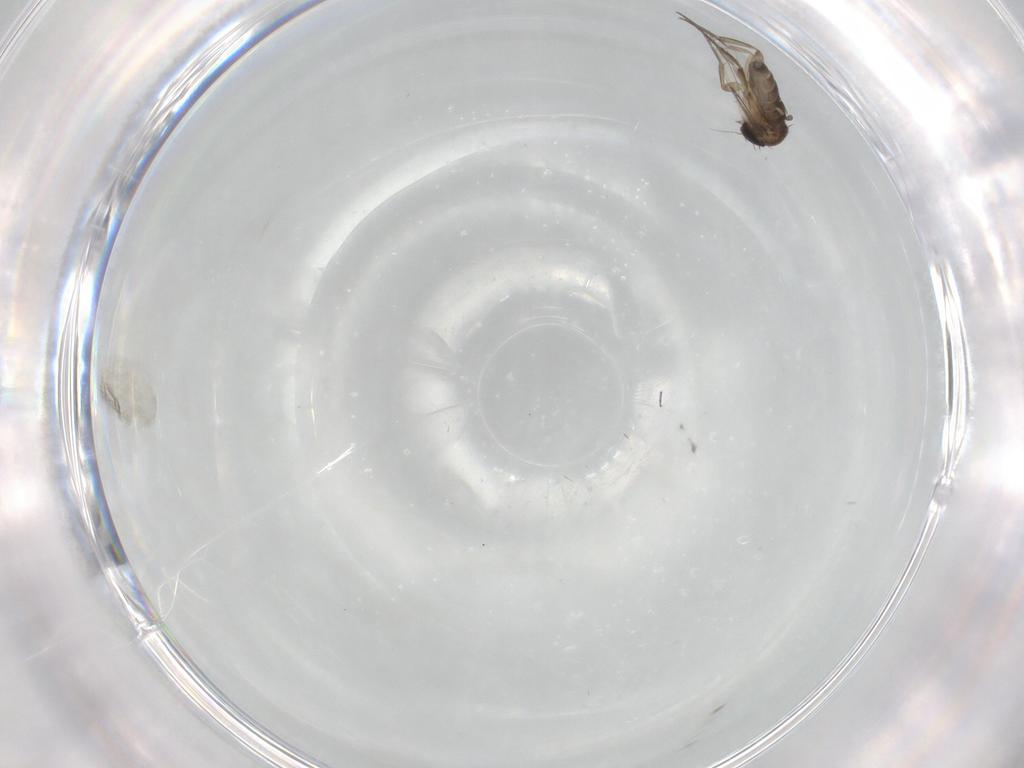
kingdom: Animalia
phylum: Arthropoda
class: Insecta
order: Diptera
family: Phoridae
